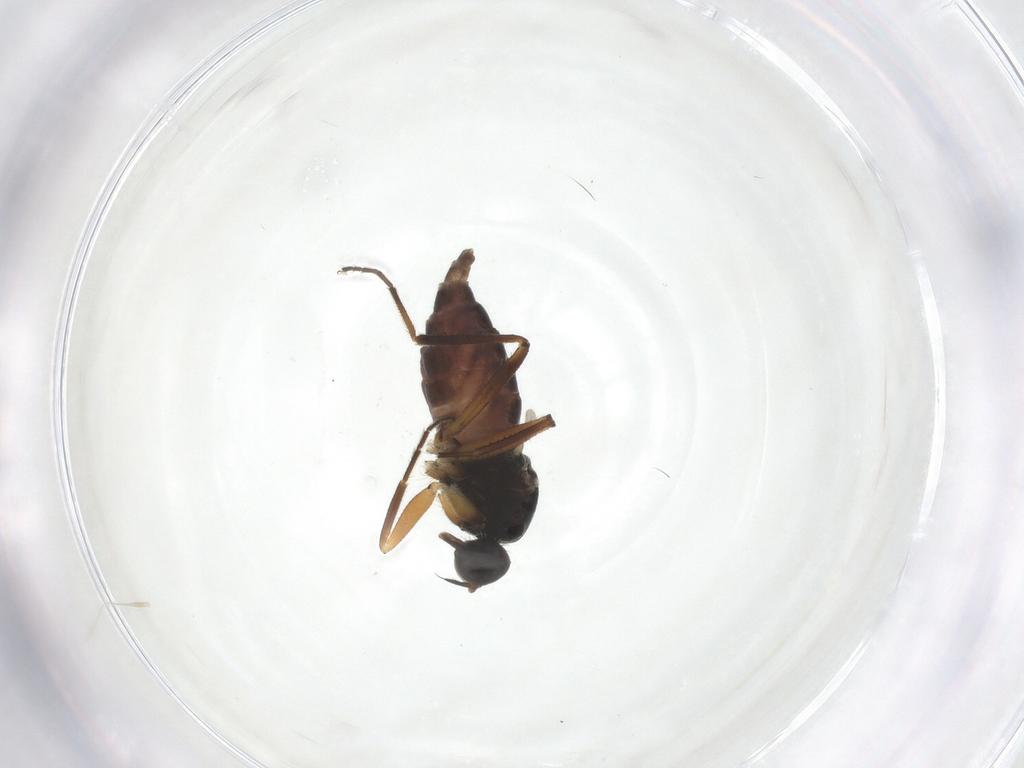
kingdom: Animalia
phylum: Arthropoda
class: Insecta
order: Diptera
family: Hybotidae
